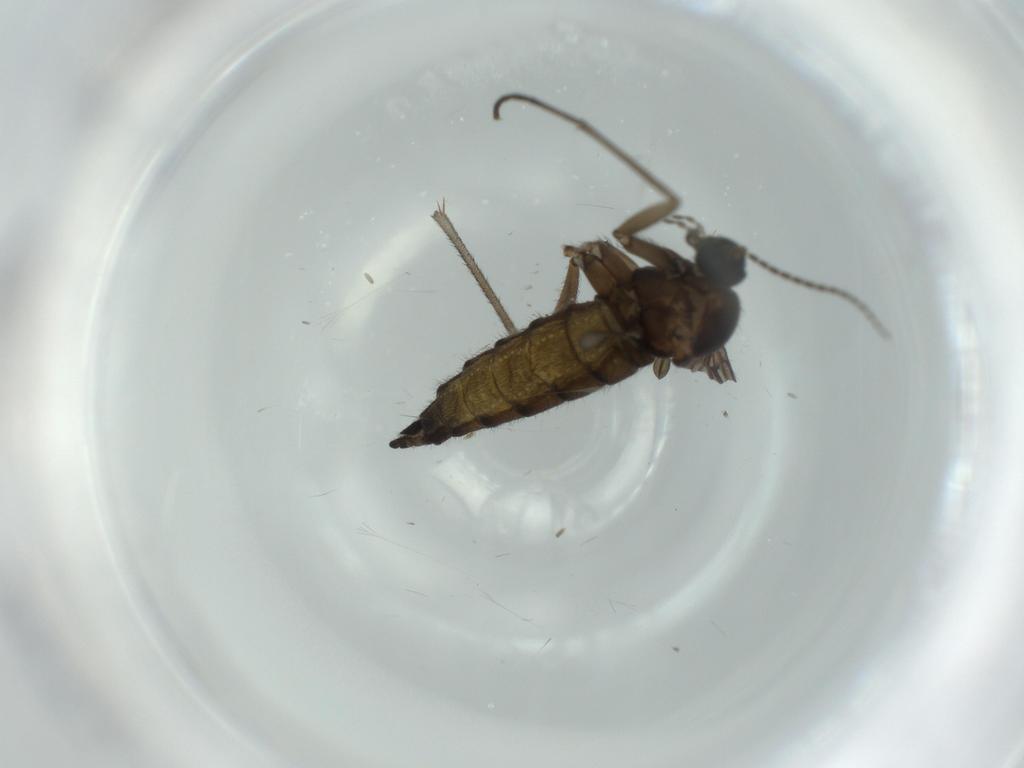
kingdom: Animalia
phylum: Arthropoda
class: Insecta
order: Diptera
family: Sciaridae
